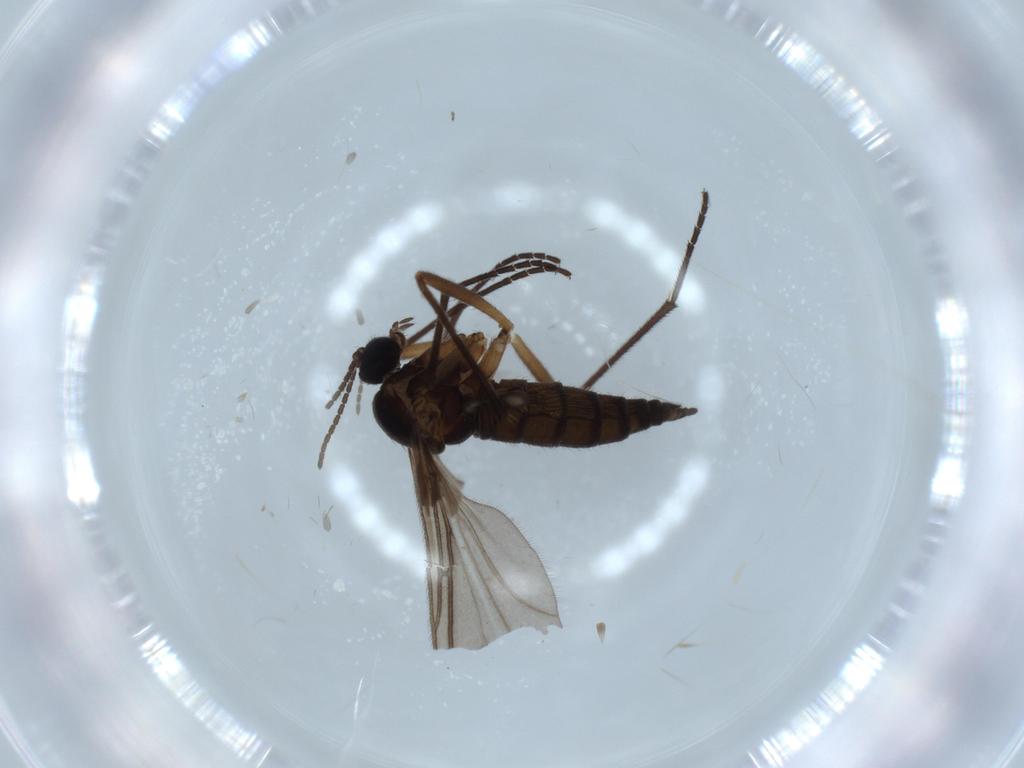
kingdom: Animalia
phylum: Arthropoda
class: Insecta
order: Diptera
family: Sciaridae
